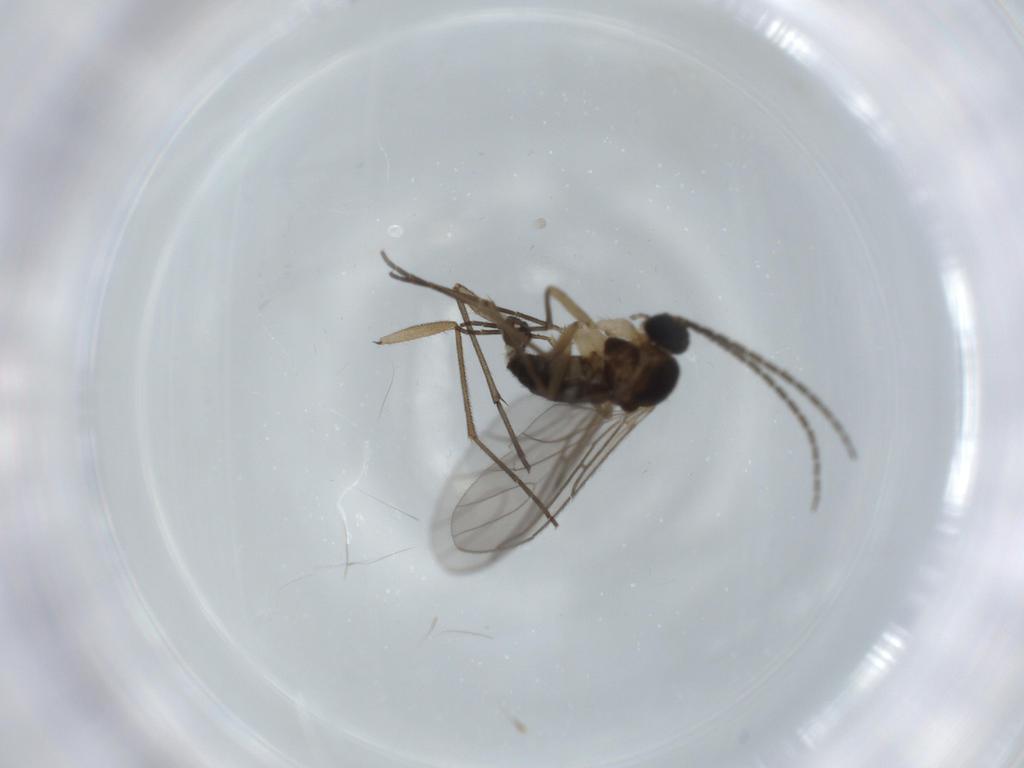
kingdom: Animalia
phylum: Arthropoda
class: Insecta
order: Diptera
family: Sciaridae
